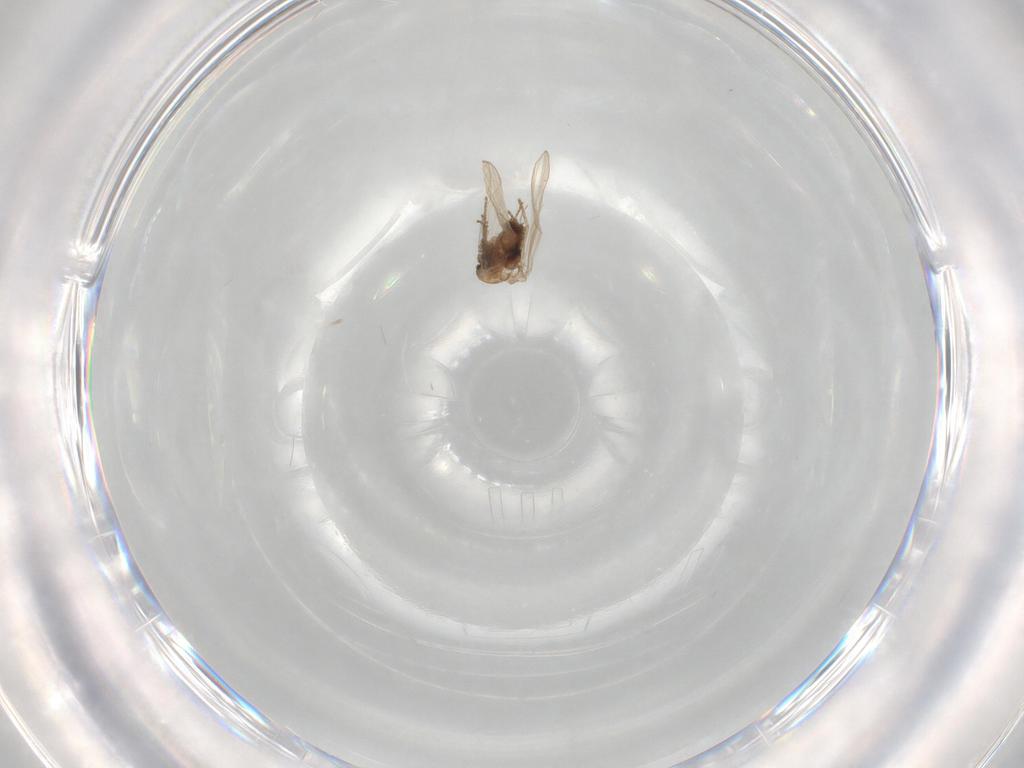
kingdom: Animalia
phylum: Arthropoda
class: Insecta
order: Diptera
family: Psychodidae
